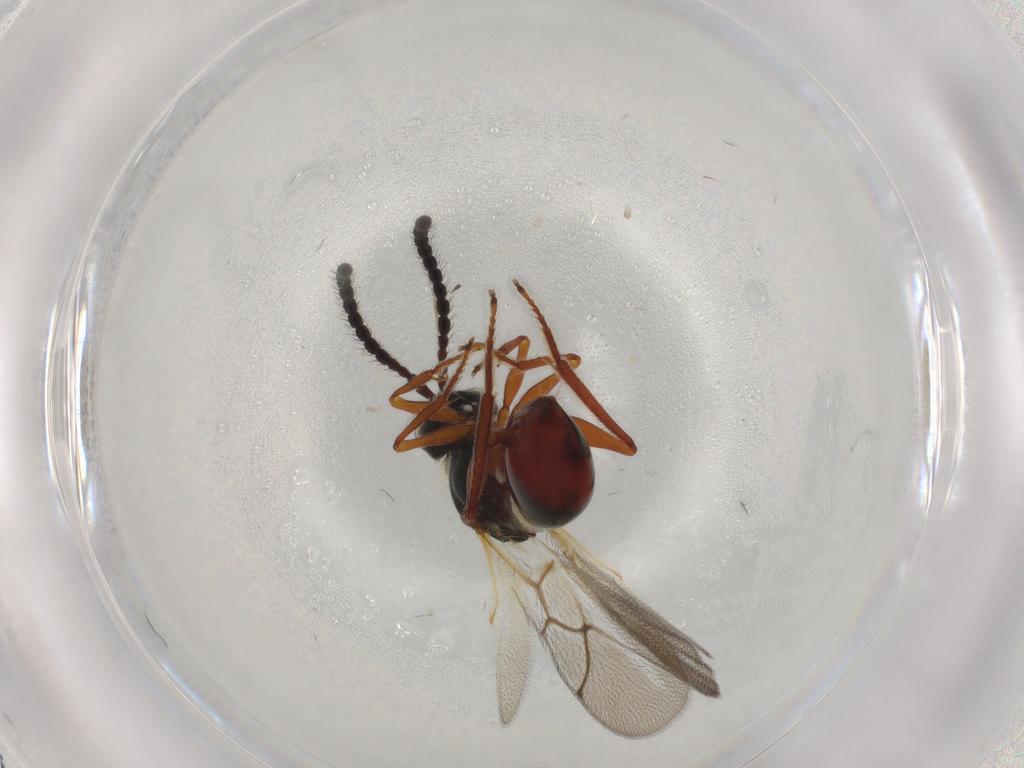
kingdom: Animalia
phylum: Arthropoda
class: Insecta
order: Hymenoptera
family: Figitidae
